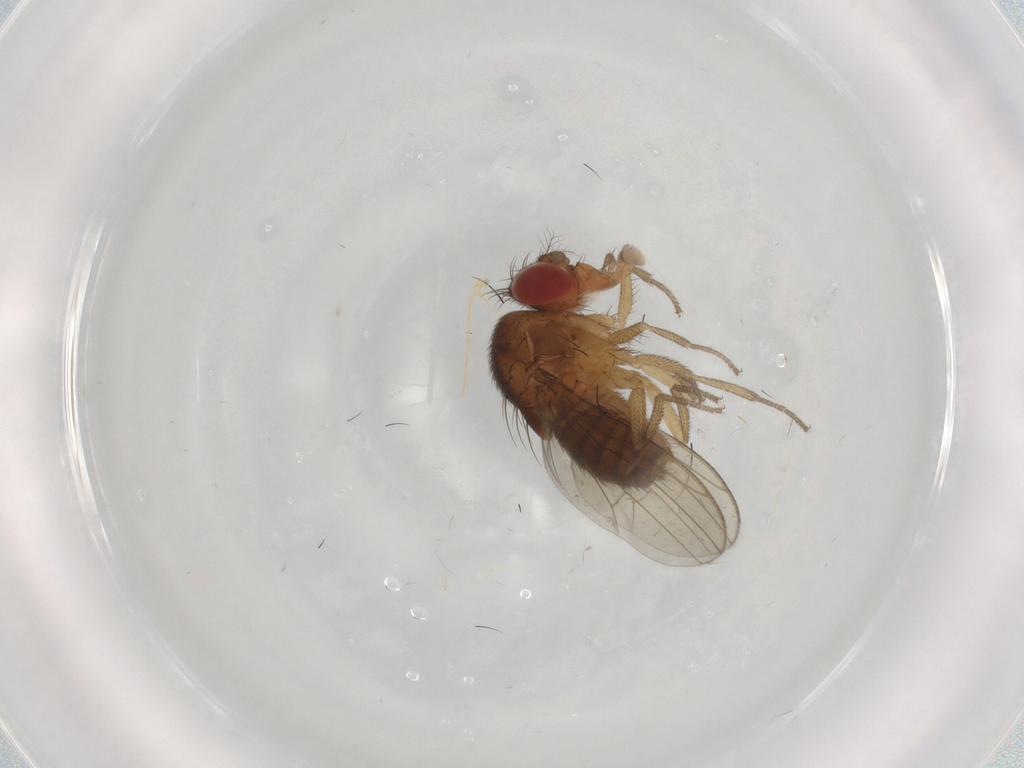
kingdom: Animalia
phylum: Arthropoda
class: Insecta
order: Diptera
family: Drosophilidae
